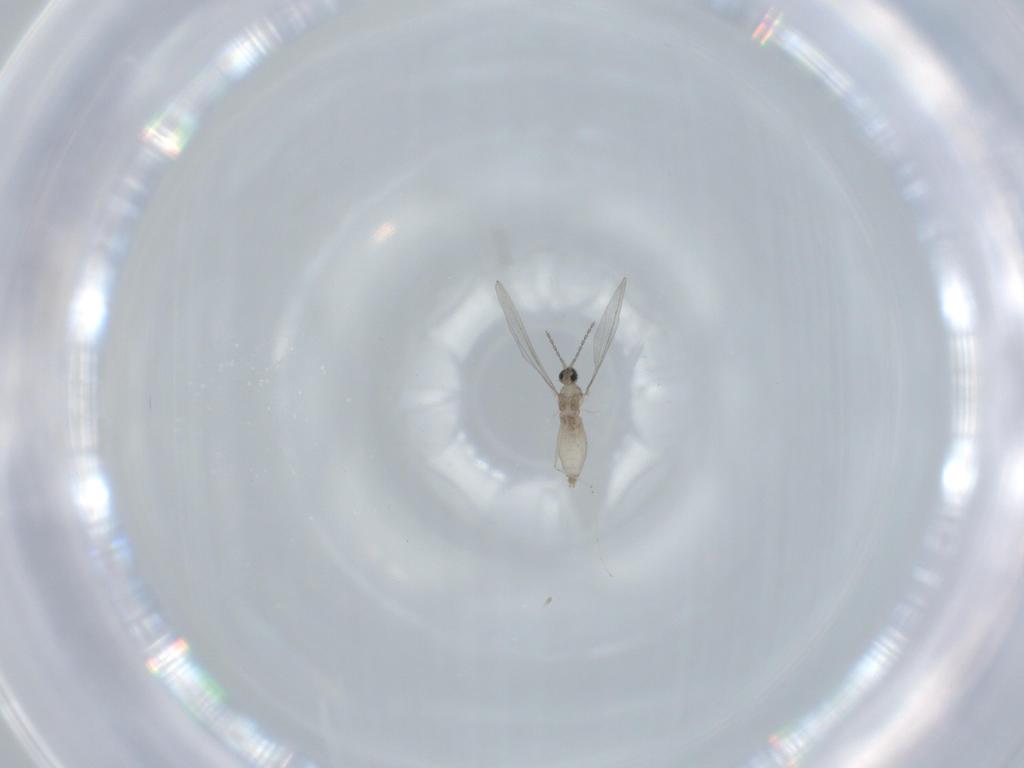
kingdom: Animalia
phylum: Arthropoda
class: Insecta
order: Diptera
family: Cecidomyiidae
